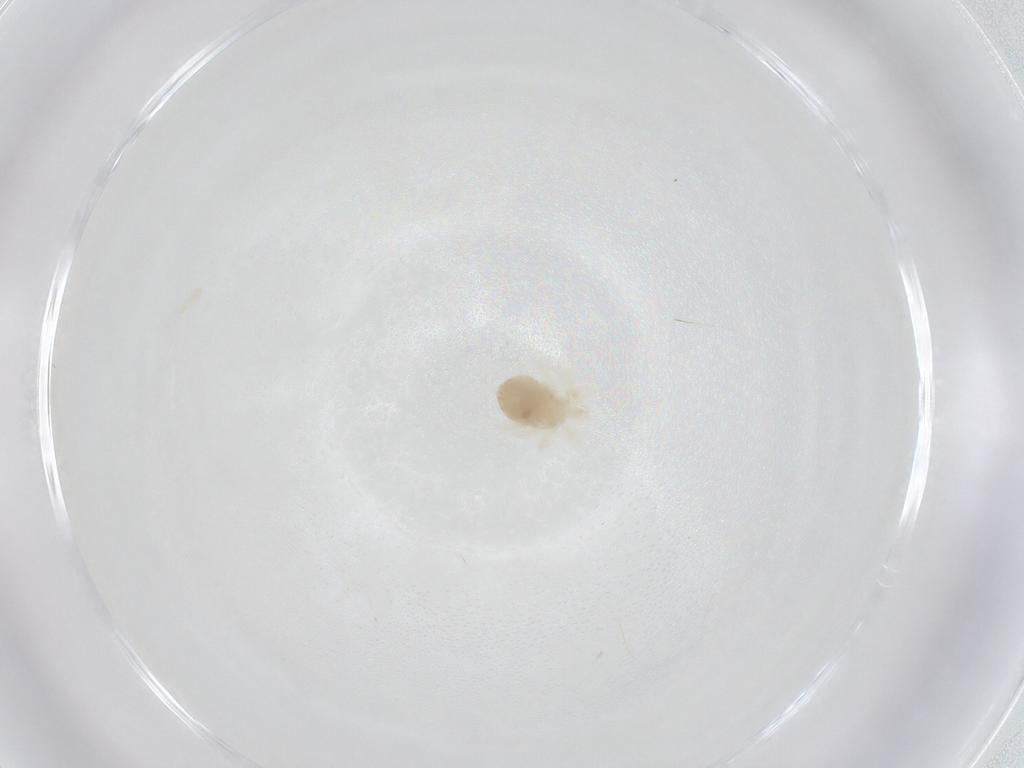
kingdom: Animalia
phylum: Arthropoda
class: Arachnida
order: Trombidiformes
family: Anystidae
